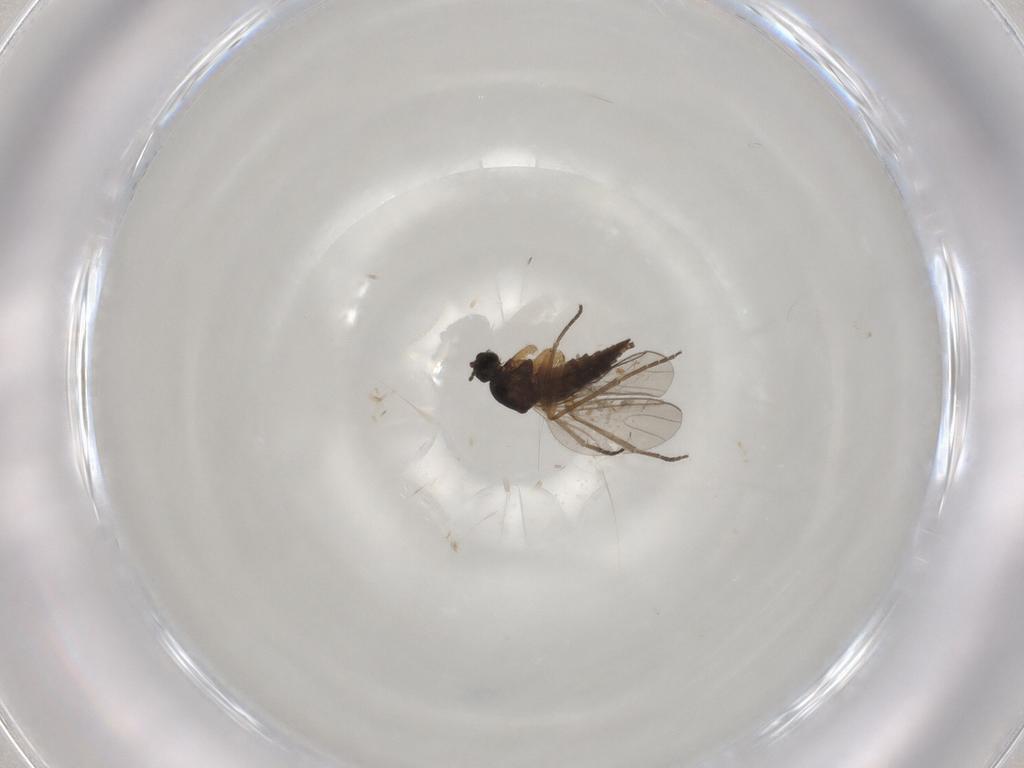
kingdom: Animalia
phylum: Arthropoda
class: Insecta
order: Diptera
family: Sciaridae
